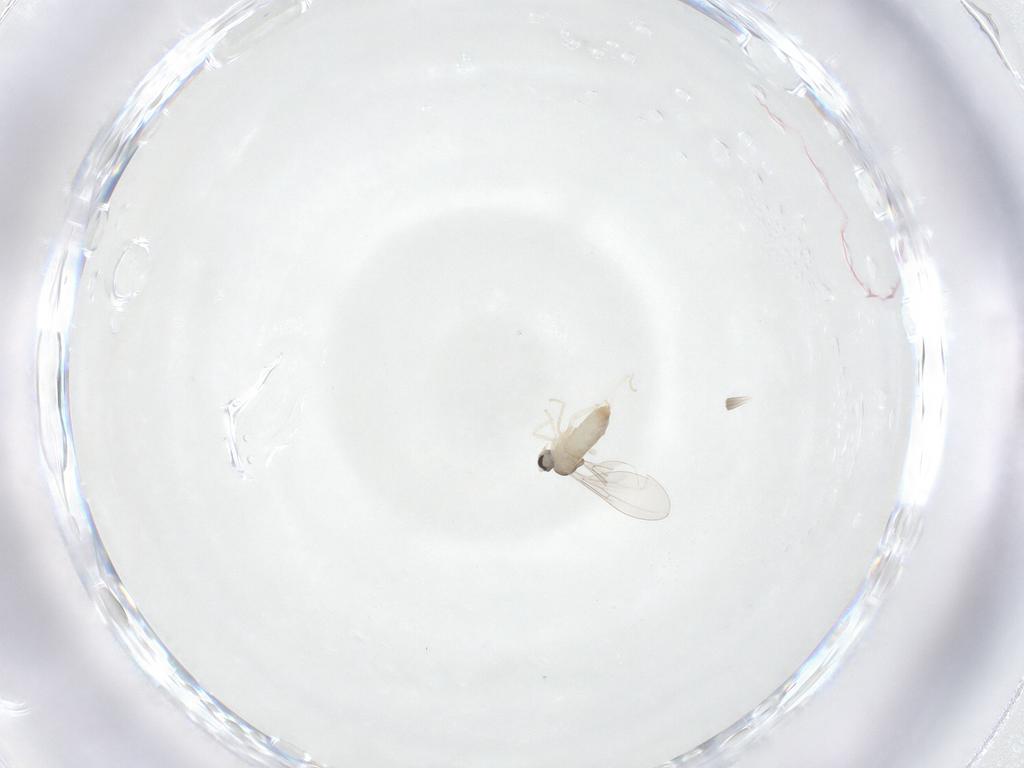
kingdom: Animalia
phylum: Arthropoda
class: Insecta
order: Diptera
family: Cecidomyiidae
